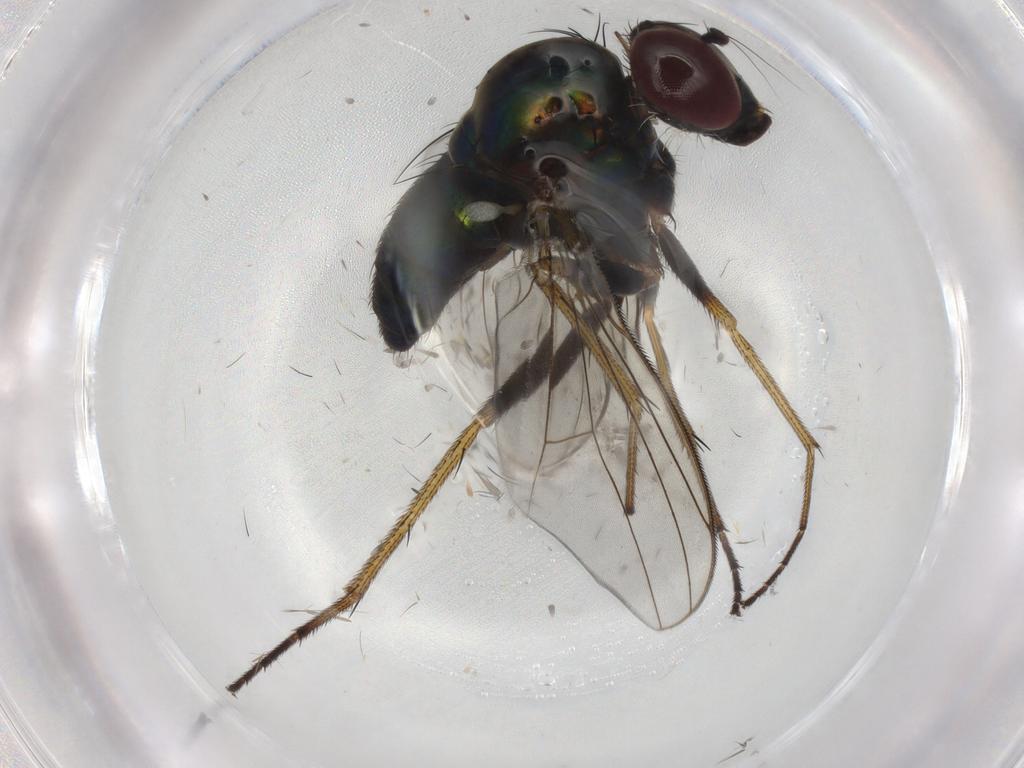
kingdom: Animalia
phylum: Arthropoda
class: Insecta
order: Diptera
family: Dolichopodidae
